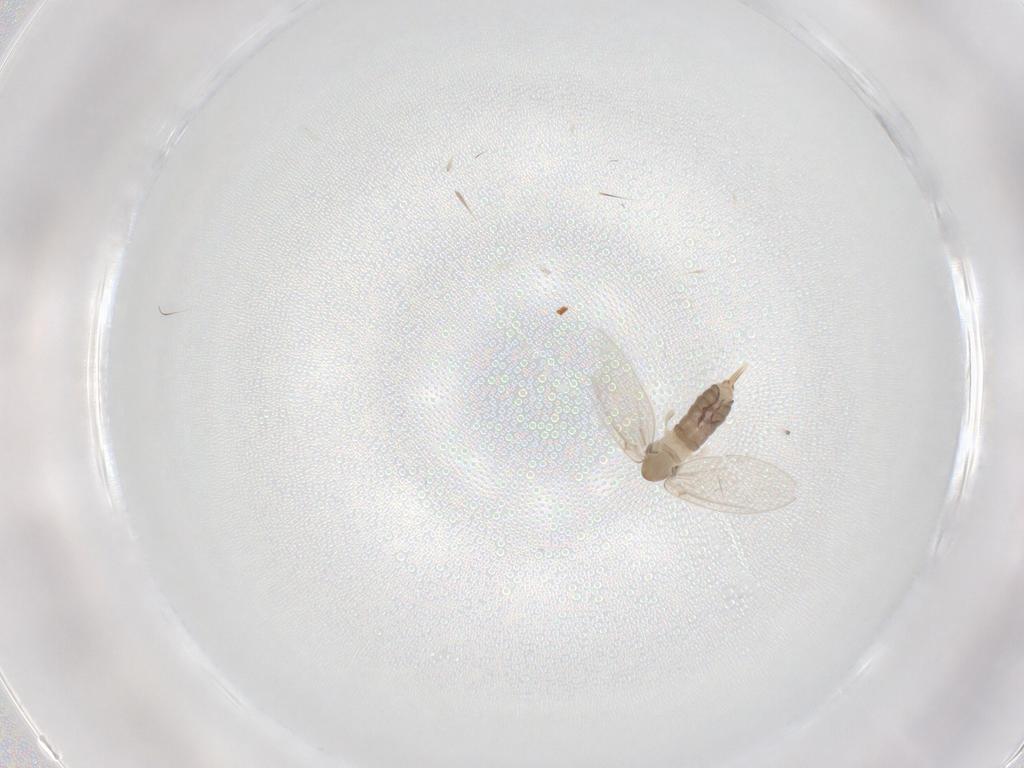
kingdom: Animalia
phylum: Arthropoda
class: Insecta
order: Diptera
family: Psychodidae
